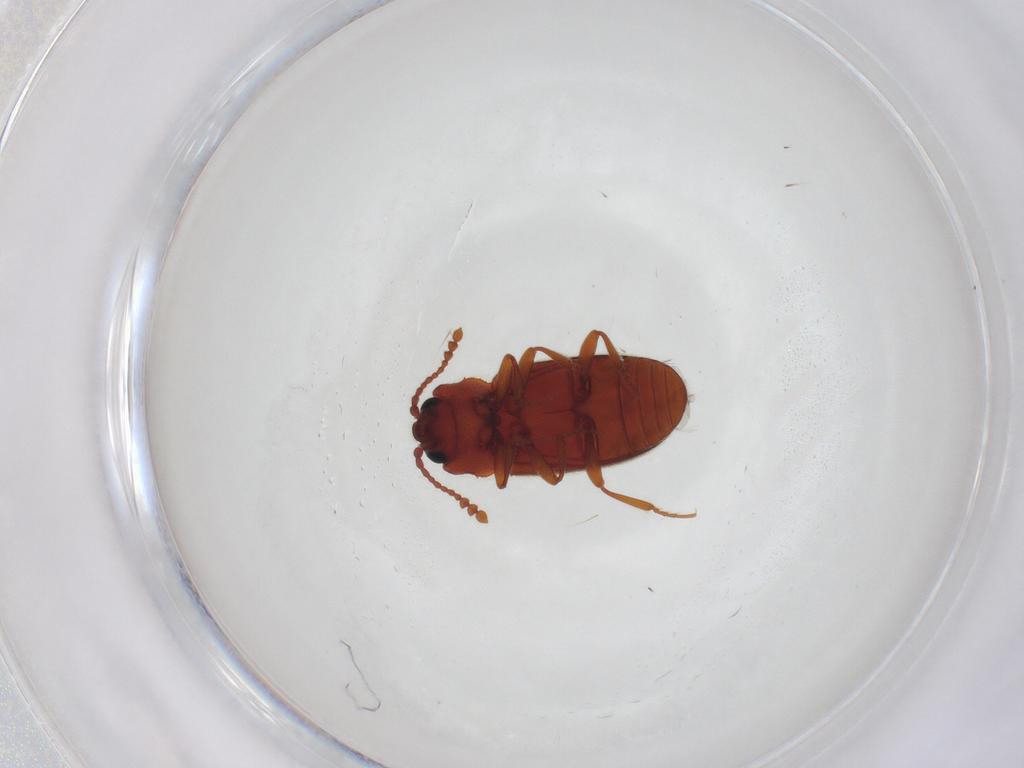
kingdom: Animalia
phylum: Arthropoda
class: Insecta
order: Coleoptera
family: Cryptophagidae
